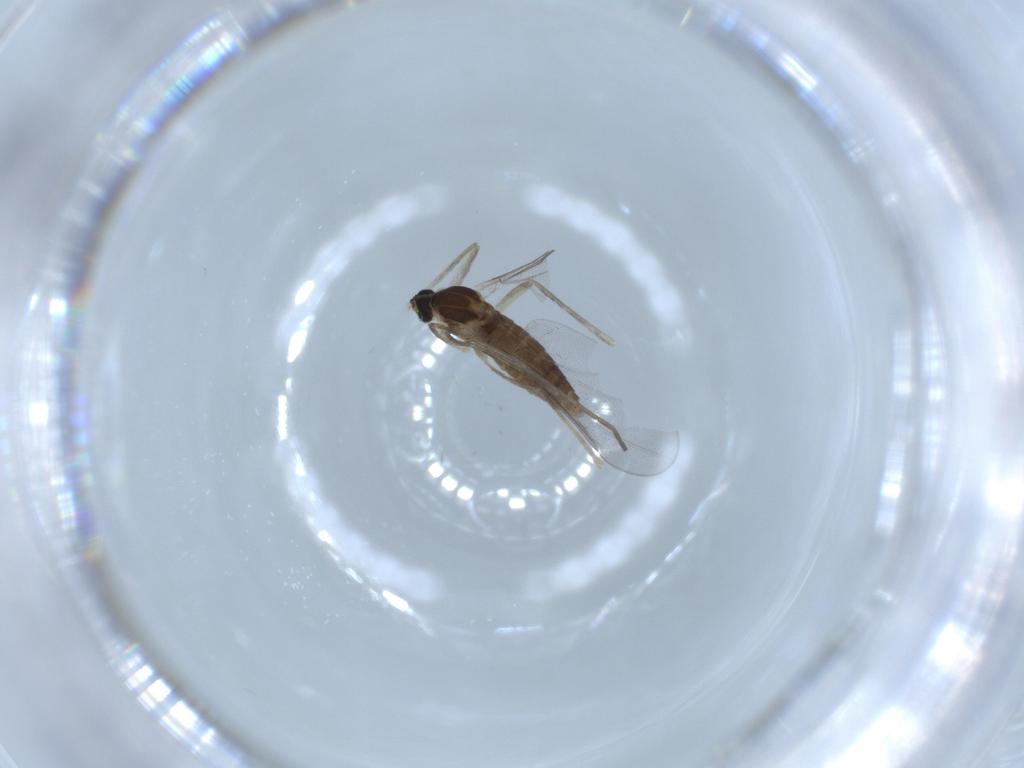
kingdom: Animalia
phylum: Arthropoda
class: Insecta
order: Diptera
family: Cecidomyiidae
